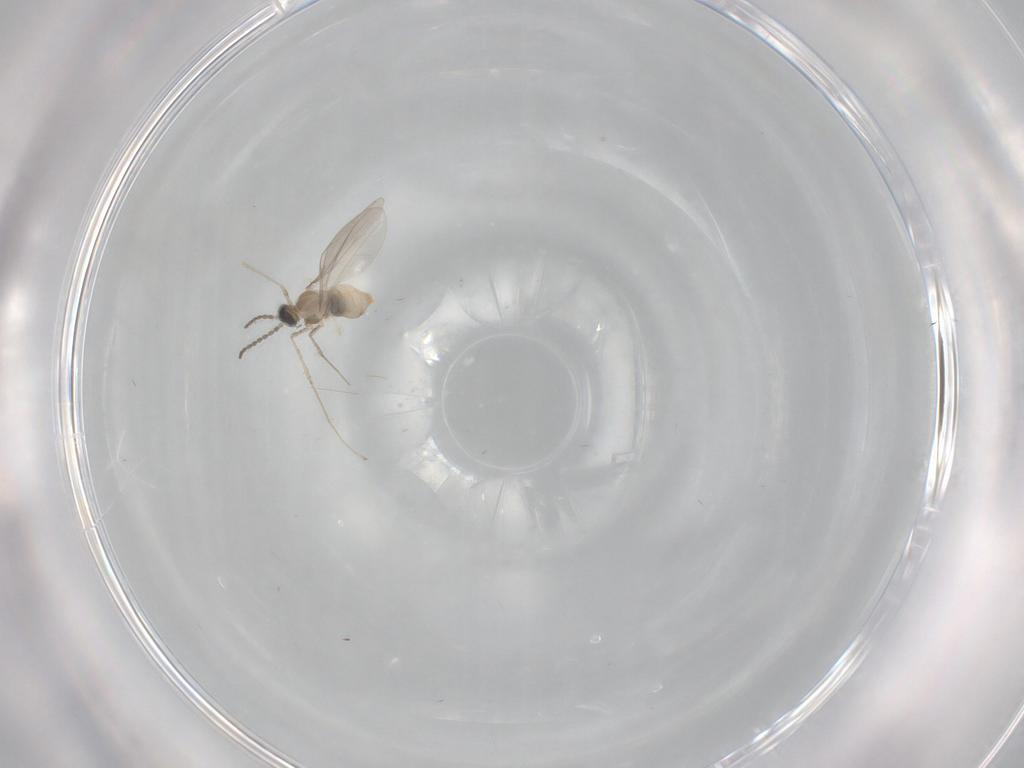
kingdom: Animalia
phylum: Arthropoda
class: Insecta
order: Diptera
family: Cecidomyiidae
